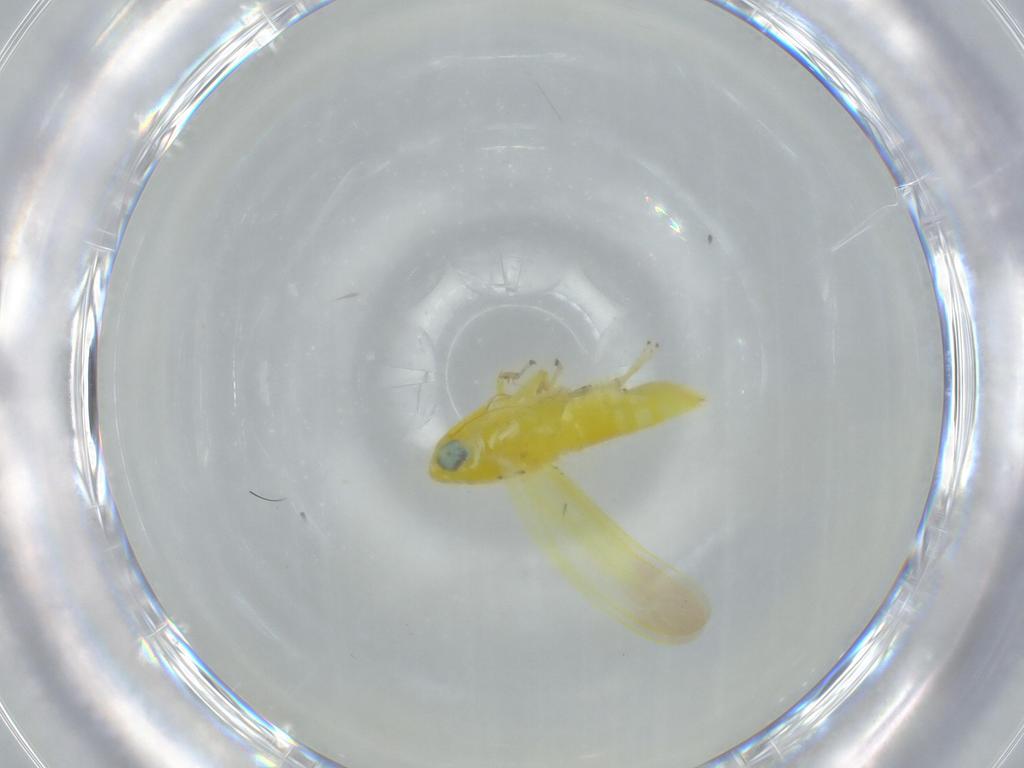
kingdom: Animalia
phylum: Arthropoda
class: Insecta
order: Hemiptera
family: Cicadellidae
